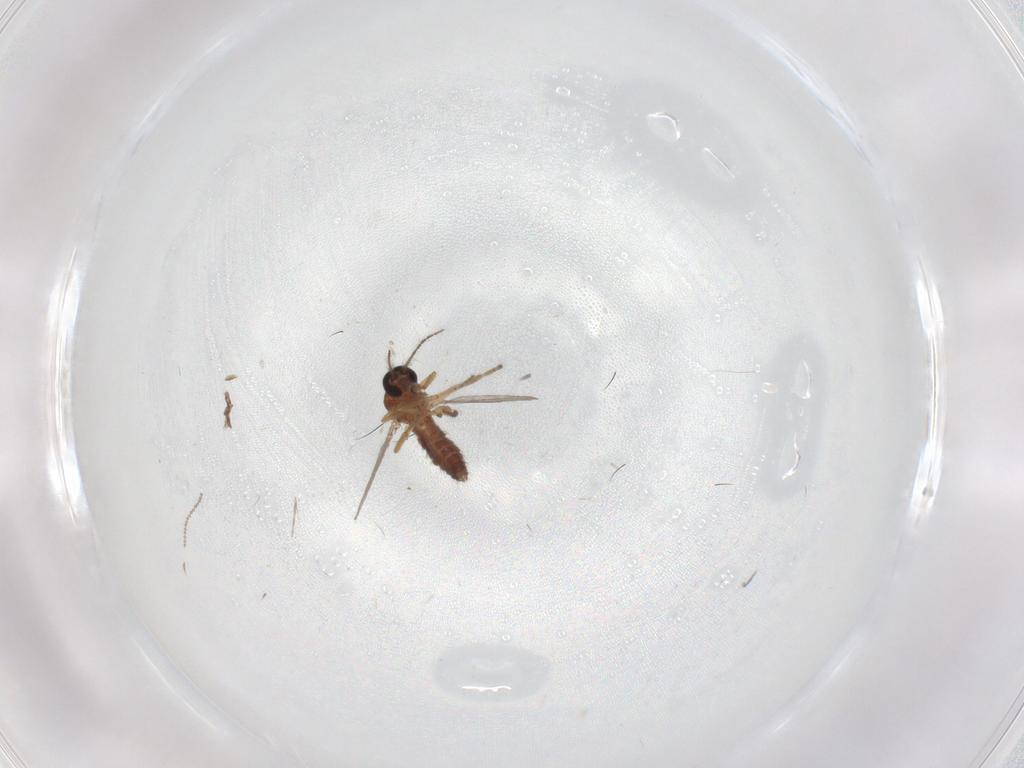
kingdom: Animalia
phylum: Arthropoda
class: Insecta
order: Diptera
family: Ceratopogonidae
